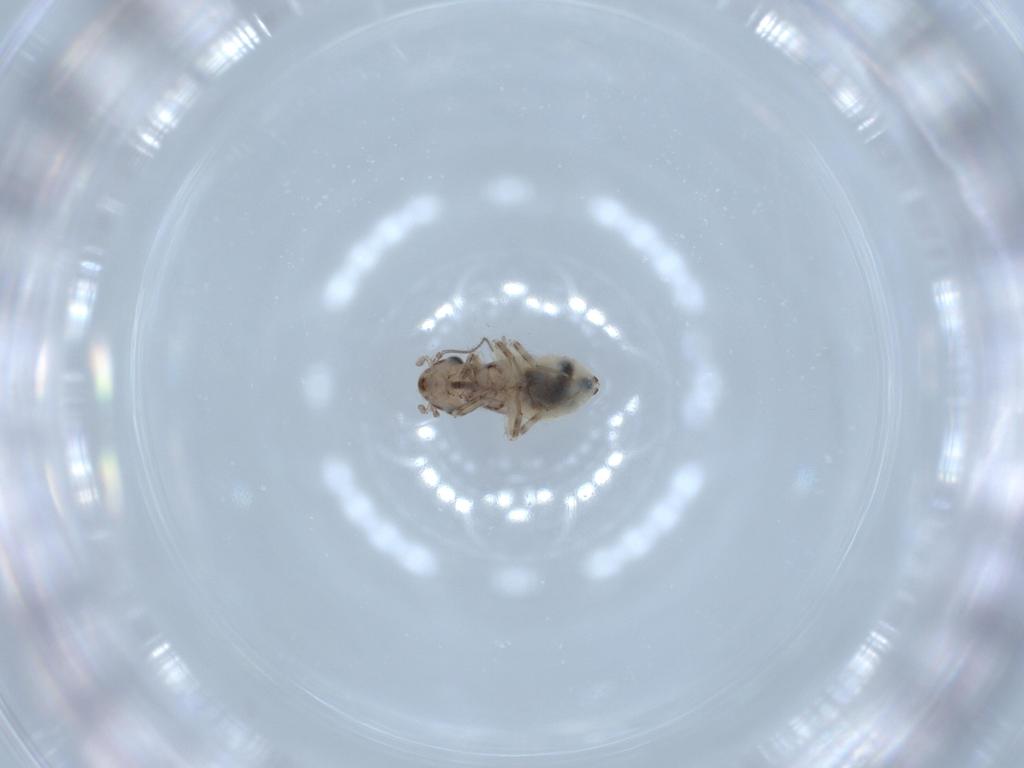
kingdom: Animalia
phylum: Arthropoda
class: Insecta
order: Psocodea
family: Lepidopsocidae
